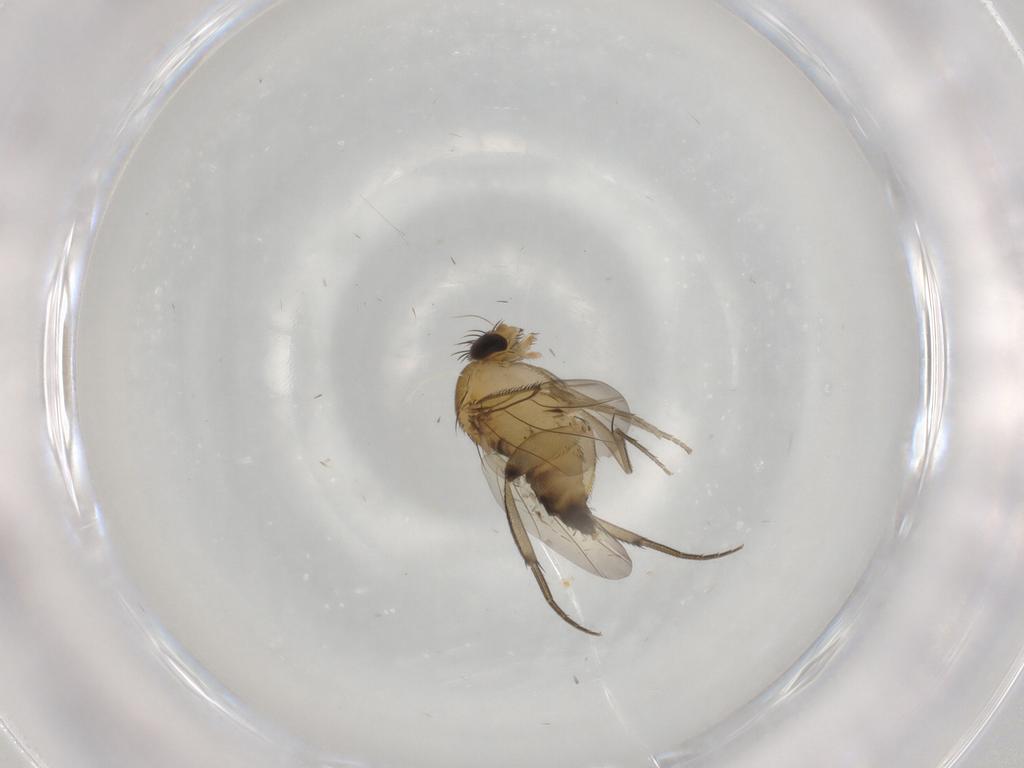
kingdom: Animalia
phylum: Arthropoda
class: Insecta
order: Diptera
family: Phoridae
